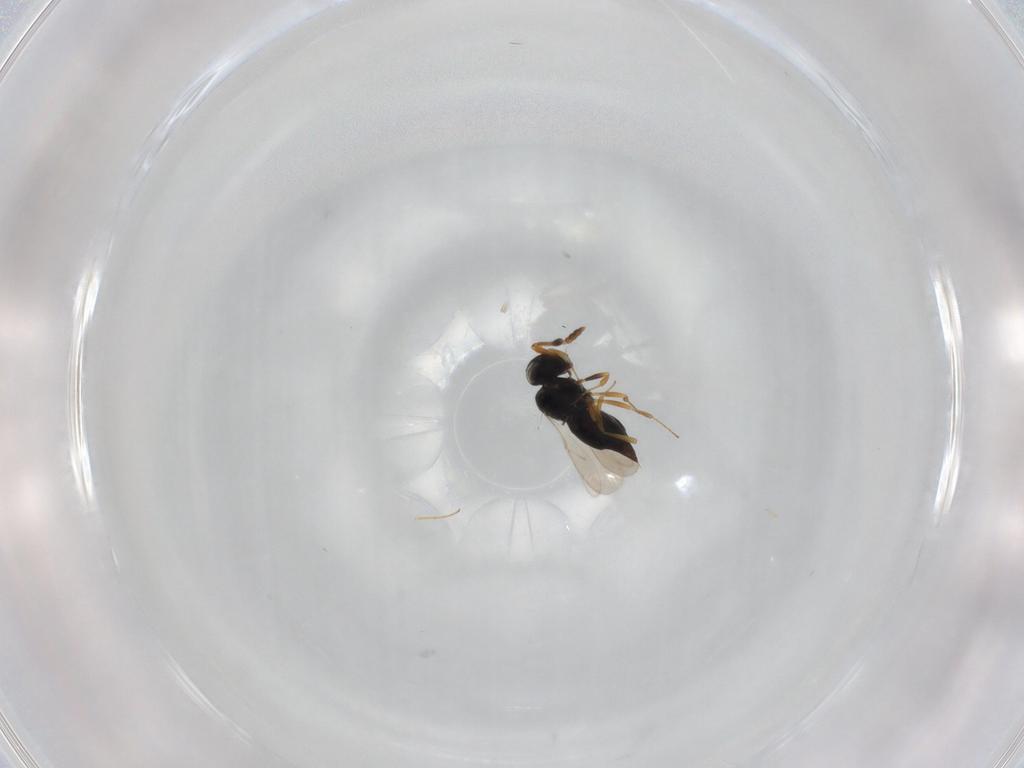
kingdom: Animalia
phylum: Arthropoda
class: Insecta
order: Hymenoptera
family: Scelionidae
